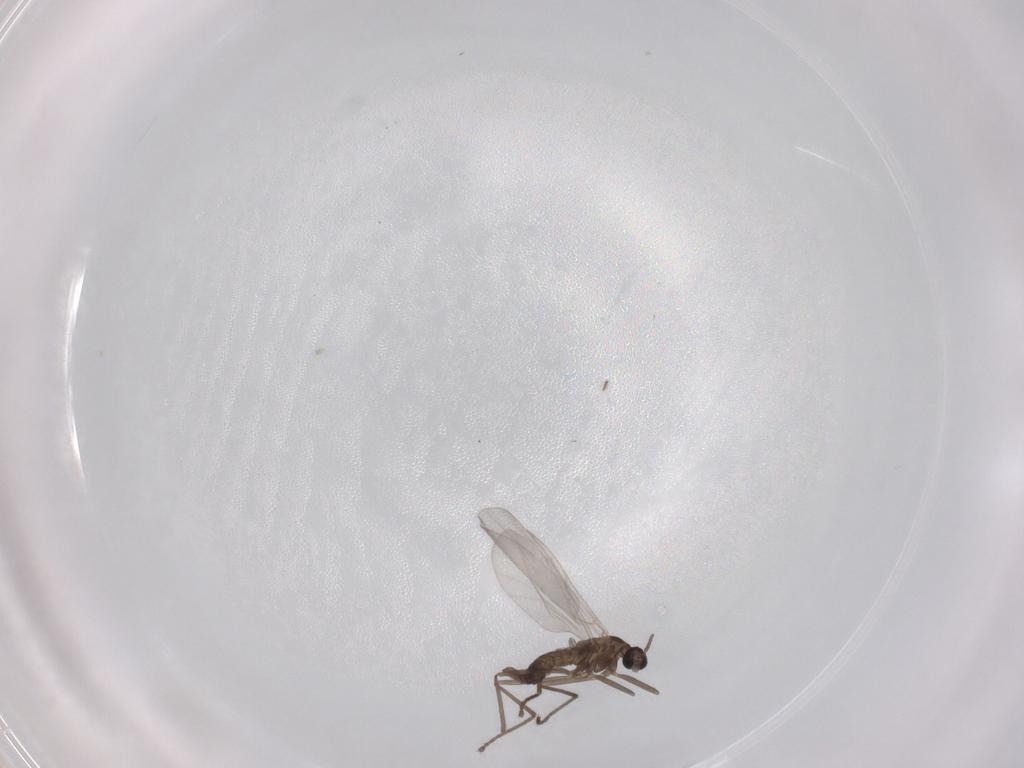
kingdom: Animalia
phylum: Arthropoda
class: Insecta
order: Diptera
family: Cecidomyiidae
